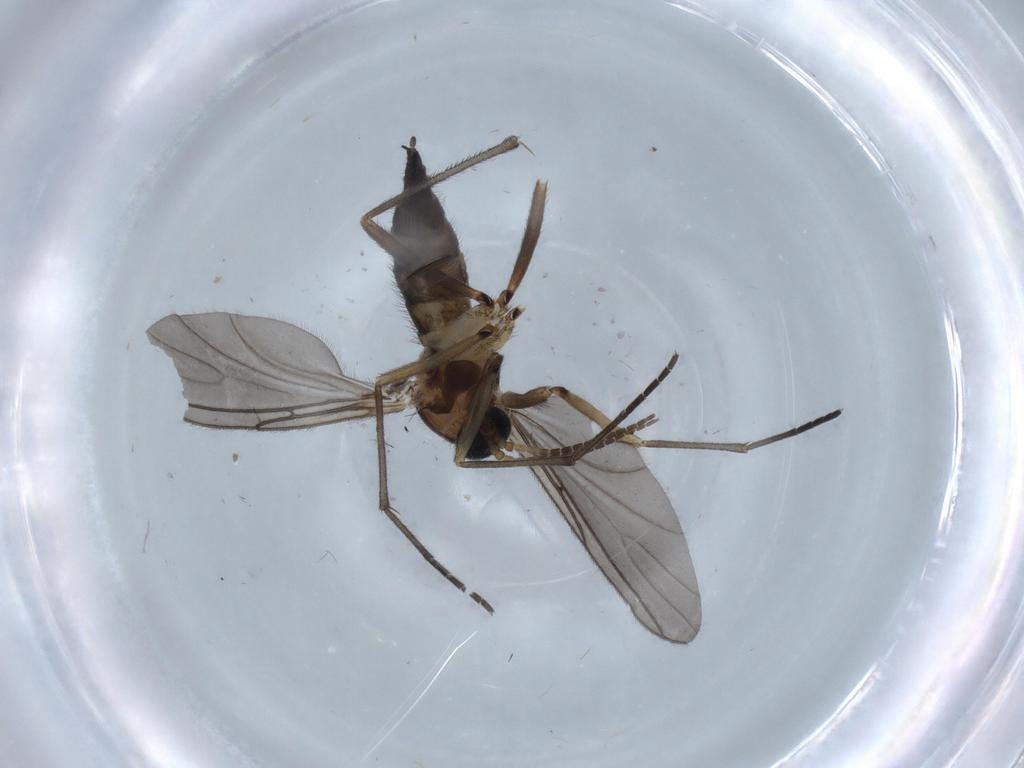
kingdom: Animalia
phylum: Arthropoda
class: Insecta
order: Diptera
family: Sciaridae
